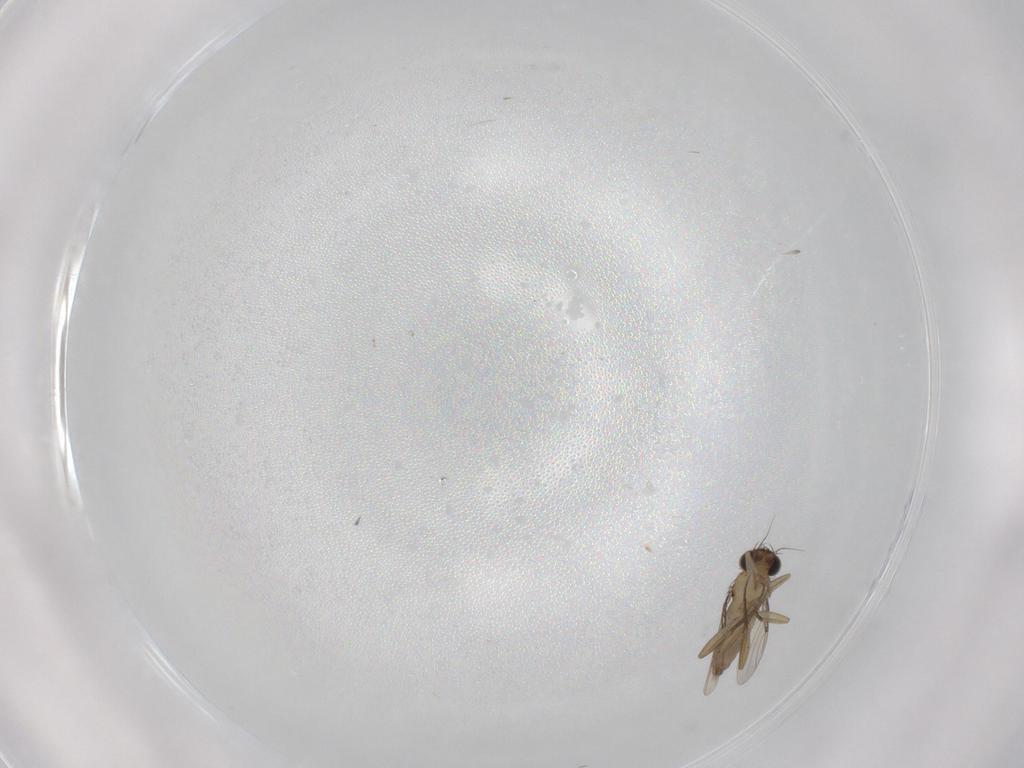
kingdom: Animalia
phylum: Arthropoda
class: Insecta
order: Diptera
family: Phoridae
